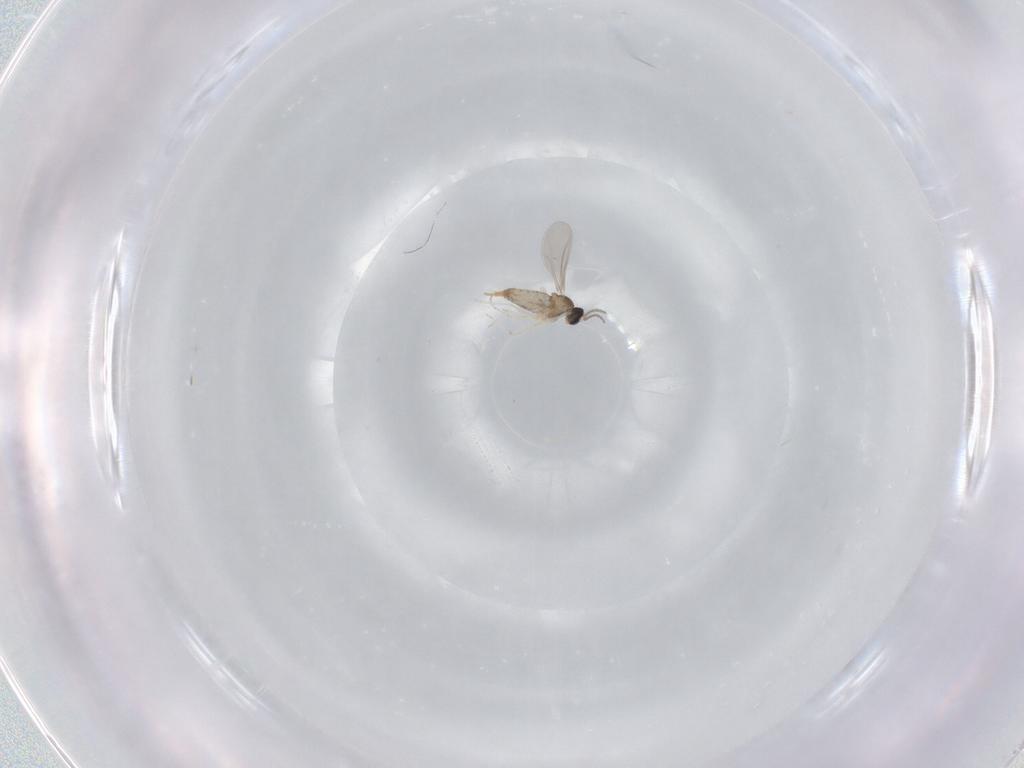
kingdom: Animalia
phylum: Arthropoda
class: Insecta
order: Diptera
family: Cecidomyiidae
